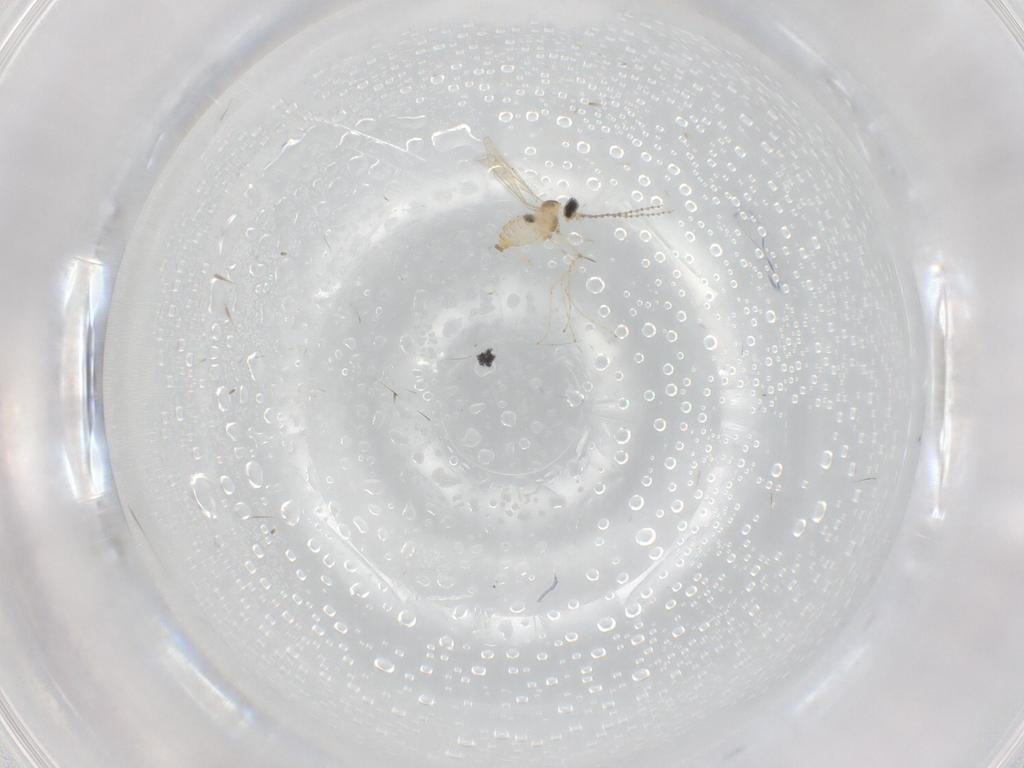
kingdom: Animalia
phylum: Arthropoda
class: Insecta
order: Diptera
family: Cecidomyiidae
